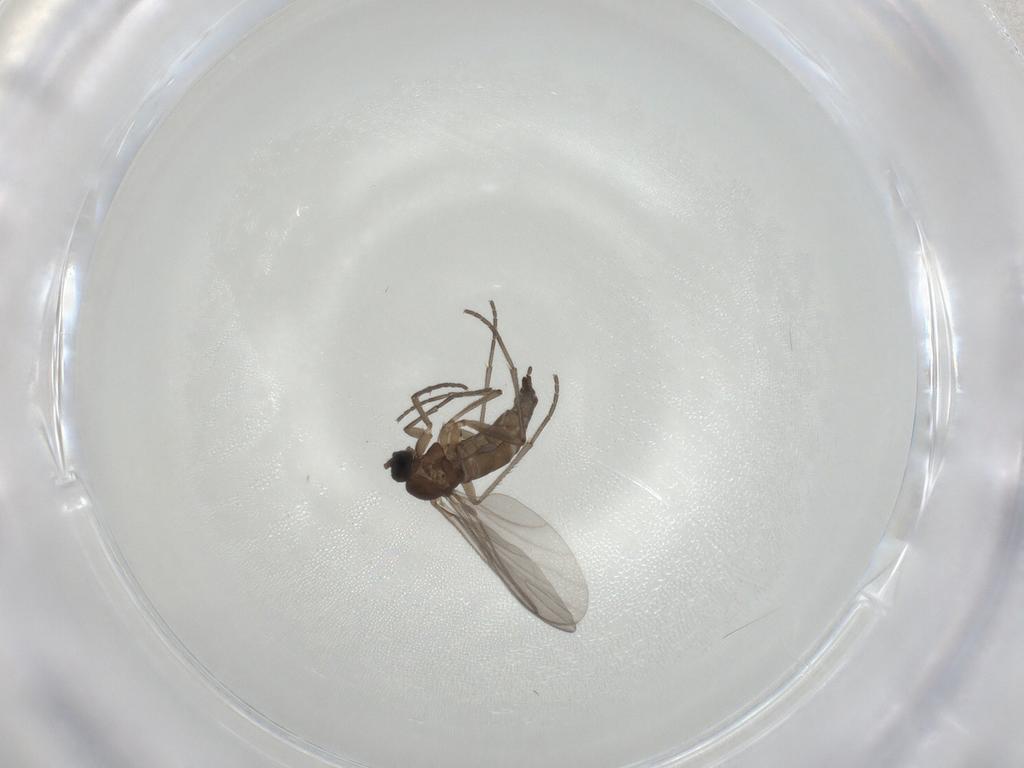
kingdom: Animalia
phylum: Arthropoda
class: Insecta
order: Diptera
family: Sciaridae
